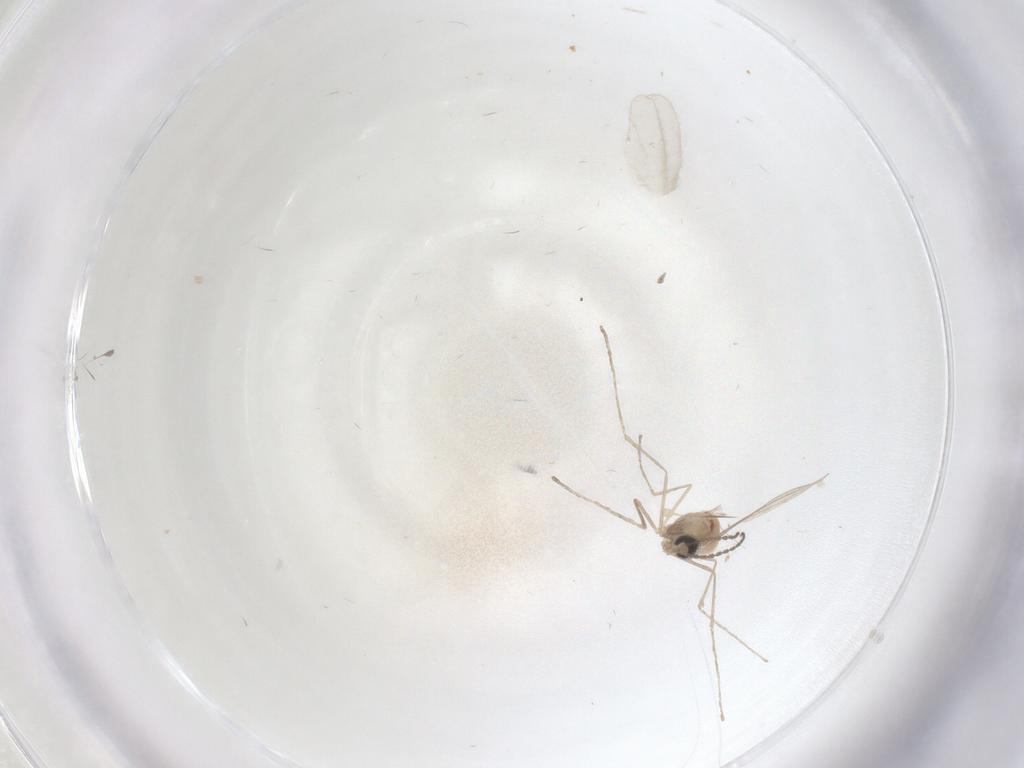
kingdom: Animalia
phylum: Arthropoda
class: Insecta
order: Diptera
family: Cecidomyiidae
